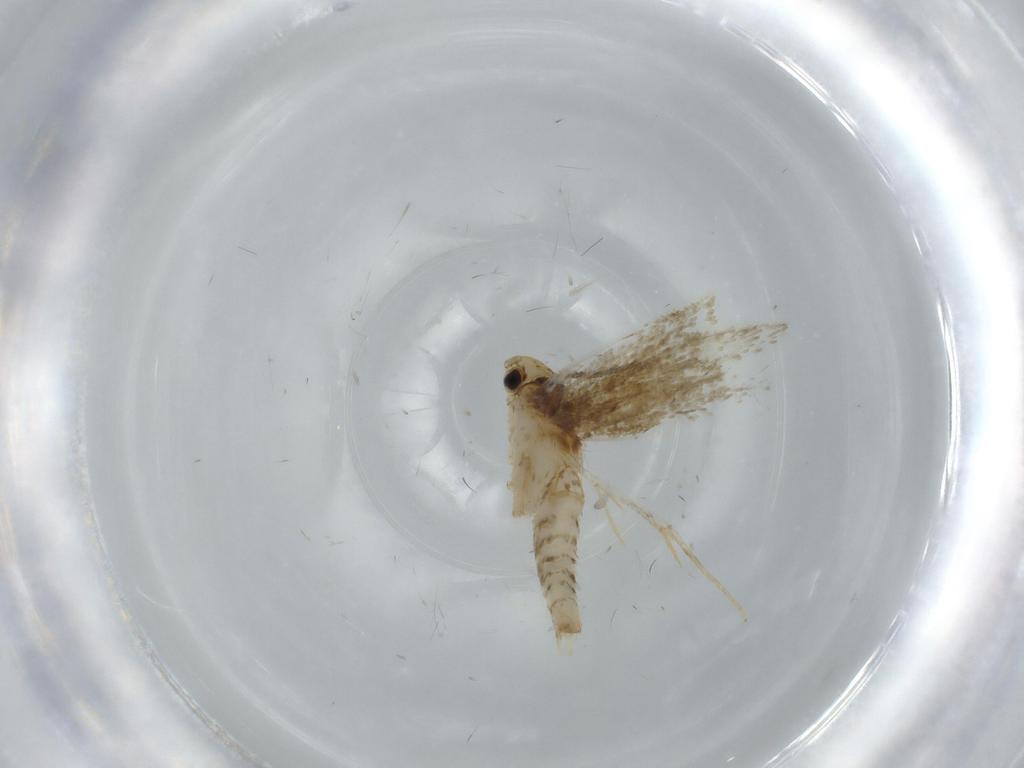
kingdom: Animalia
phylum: Arthropoda
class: Insecta
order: Lepidoptera
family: Tineidae
